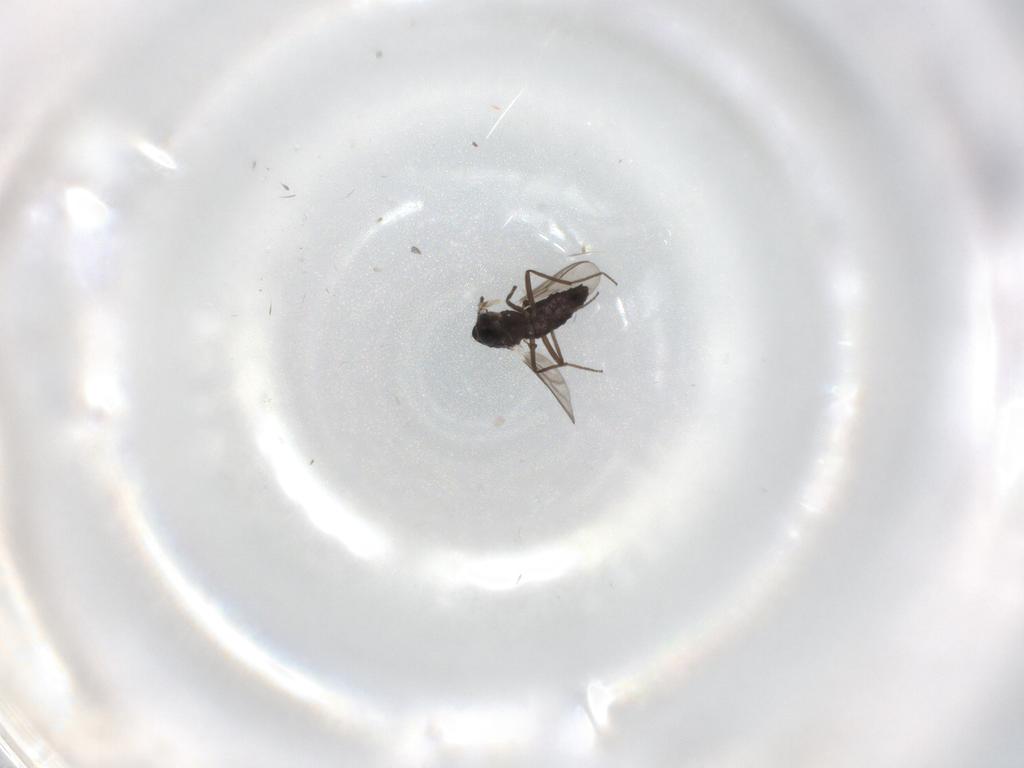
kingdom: Animalia
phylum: Arthropoda
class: Insecta
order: Diptera
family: Chironomidae
